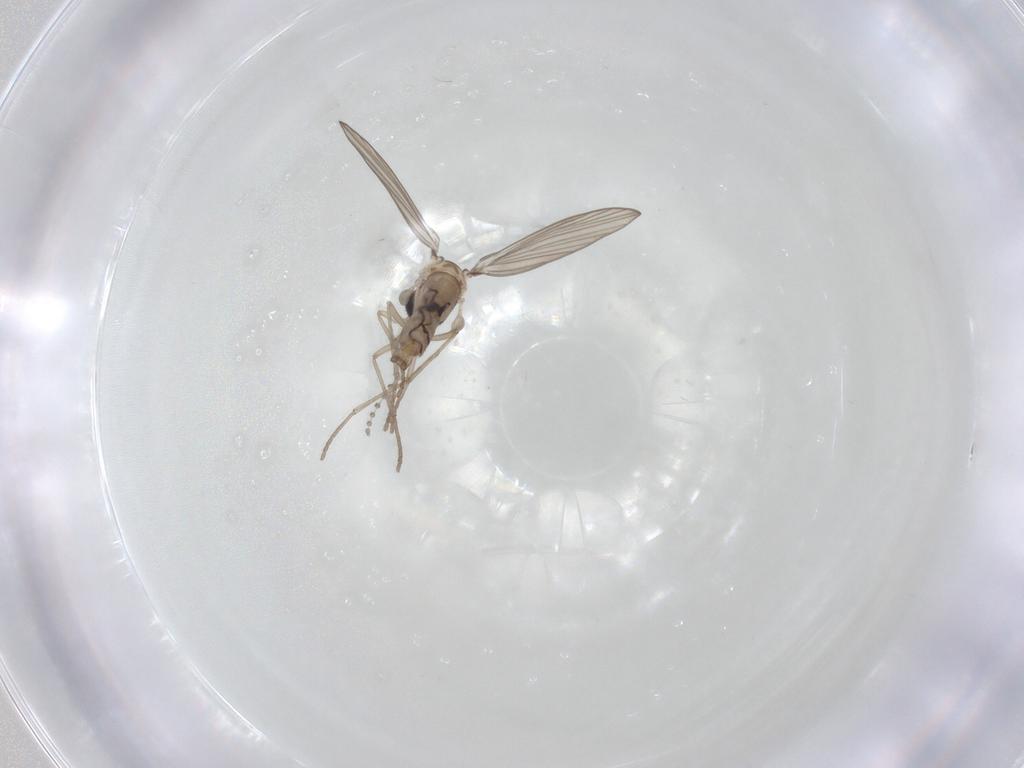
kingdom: Animalia
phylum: Arthropoda
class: Insecta
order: Diptera
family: Psychodidae
